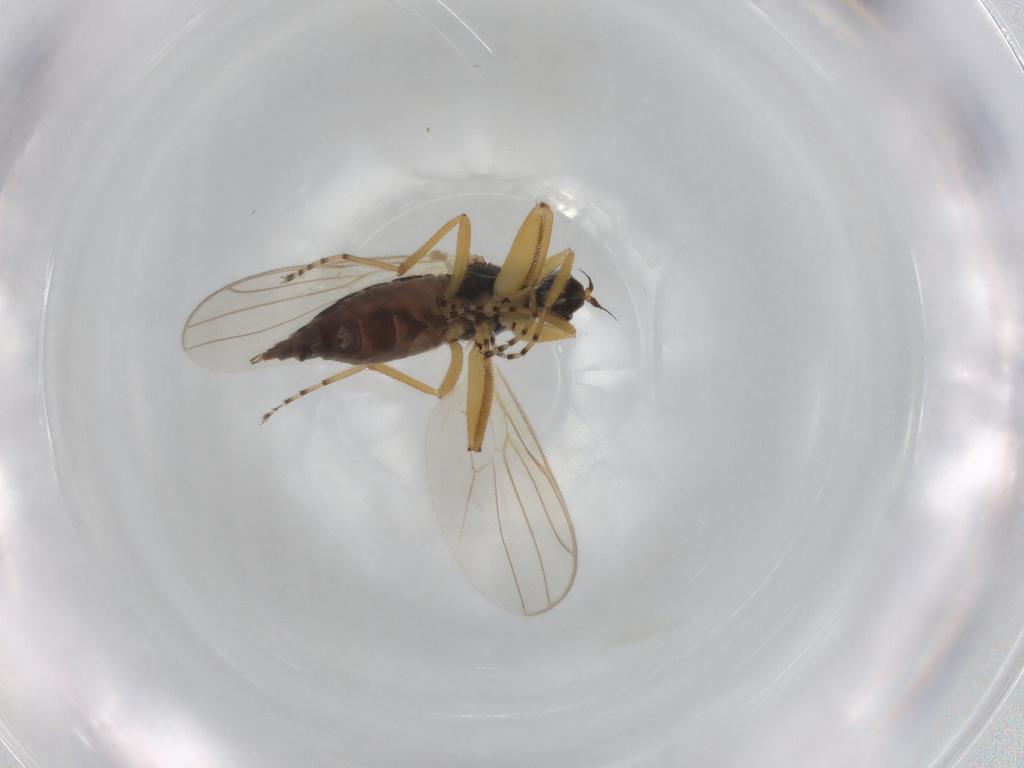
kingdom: Animalia
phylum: Arthropoda
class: Insecta
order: Diptera
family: Hybotidae
